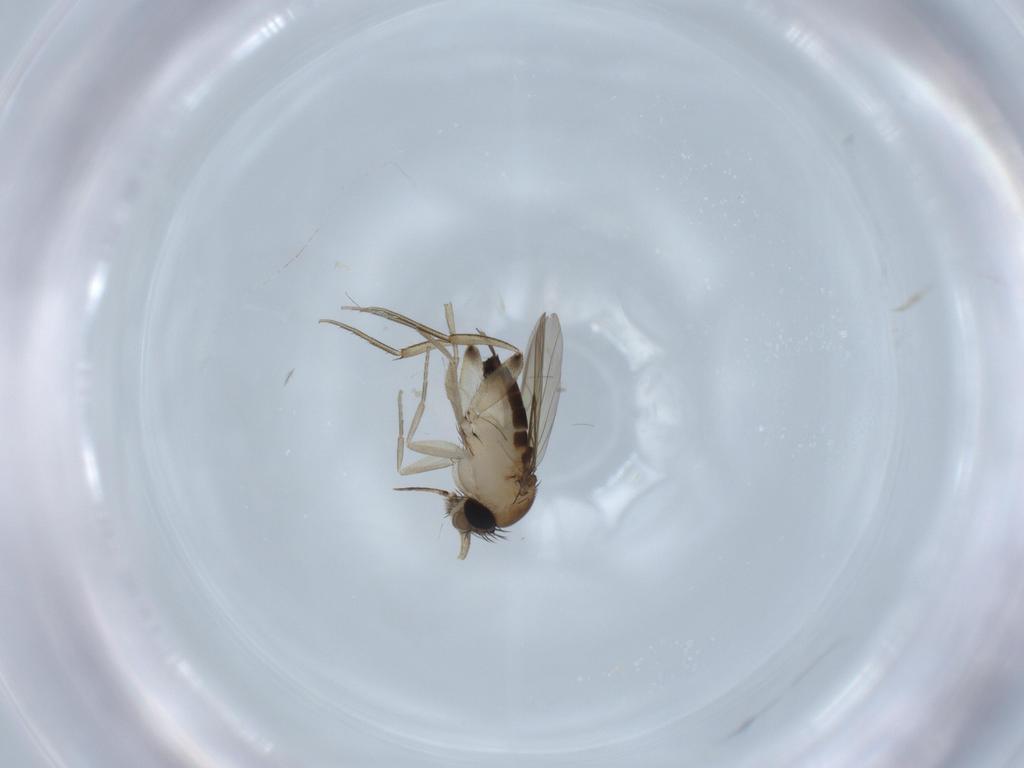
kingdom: Animalia
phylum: Arthropoda
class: Insecta
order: Diptera
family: Phoridae
